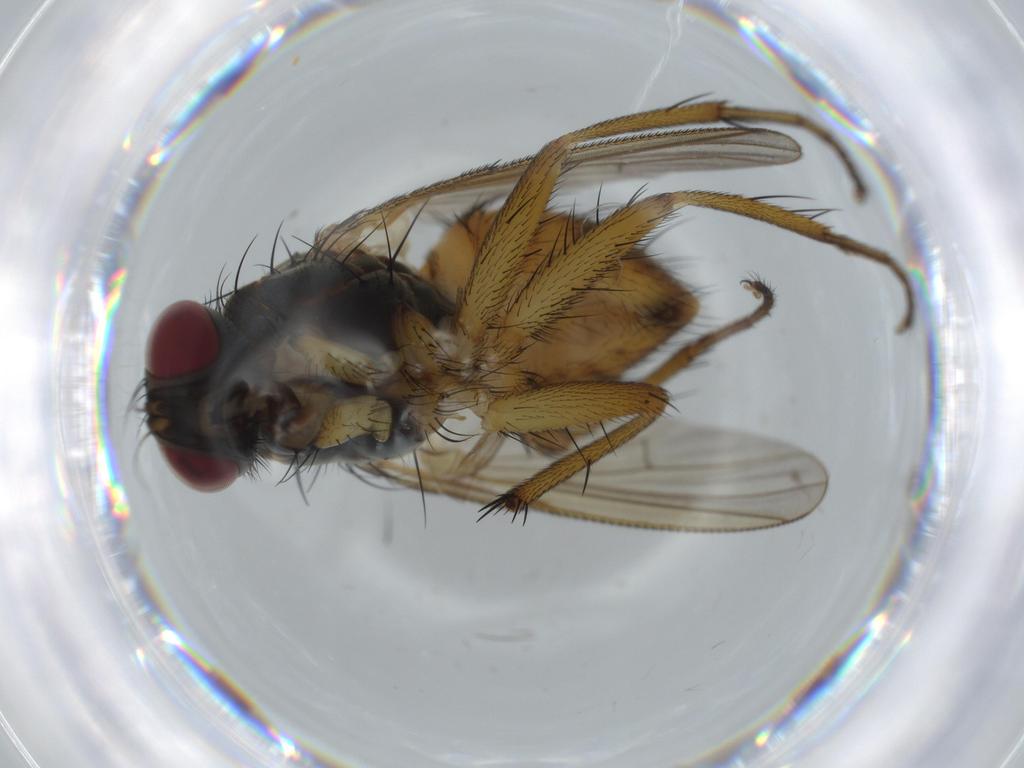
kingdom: Animalia
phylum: Arthropoda
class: Insecta
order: Diptera
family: Muscidae
